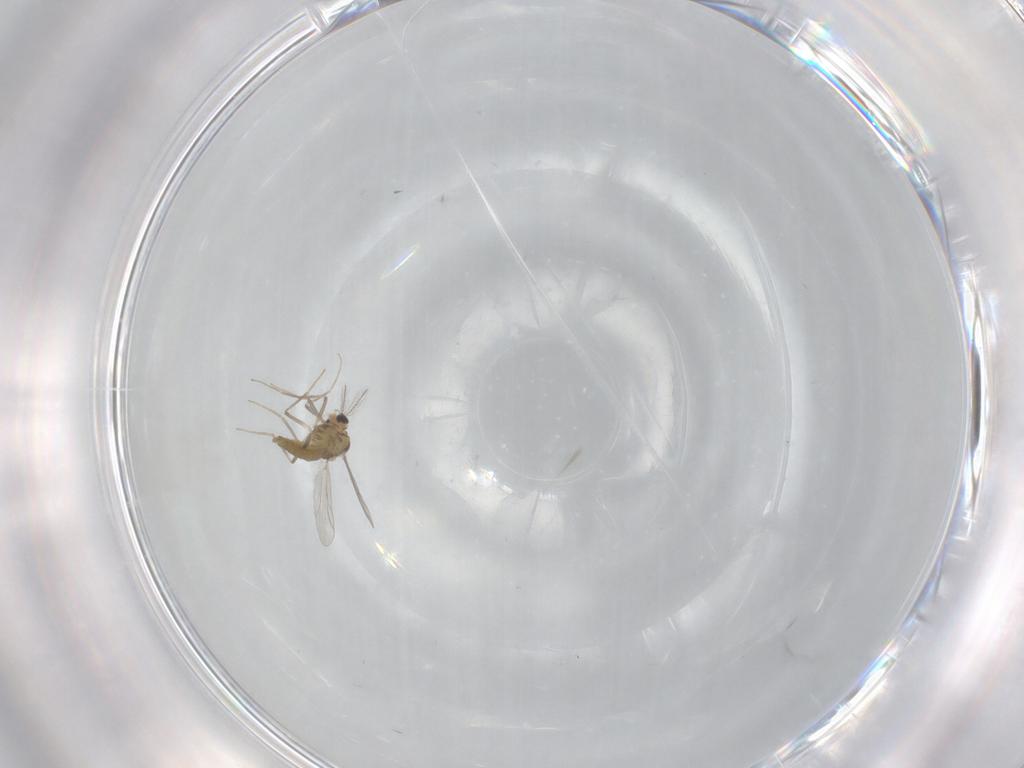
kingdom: Animalia
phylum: Arthropoda
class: Insecta
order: Diptera
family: Chironomidae
